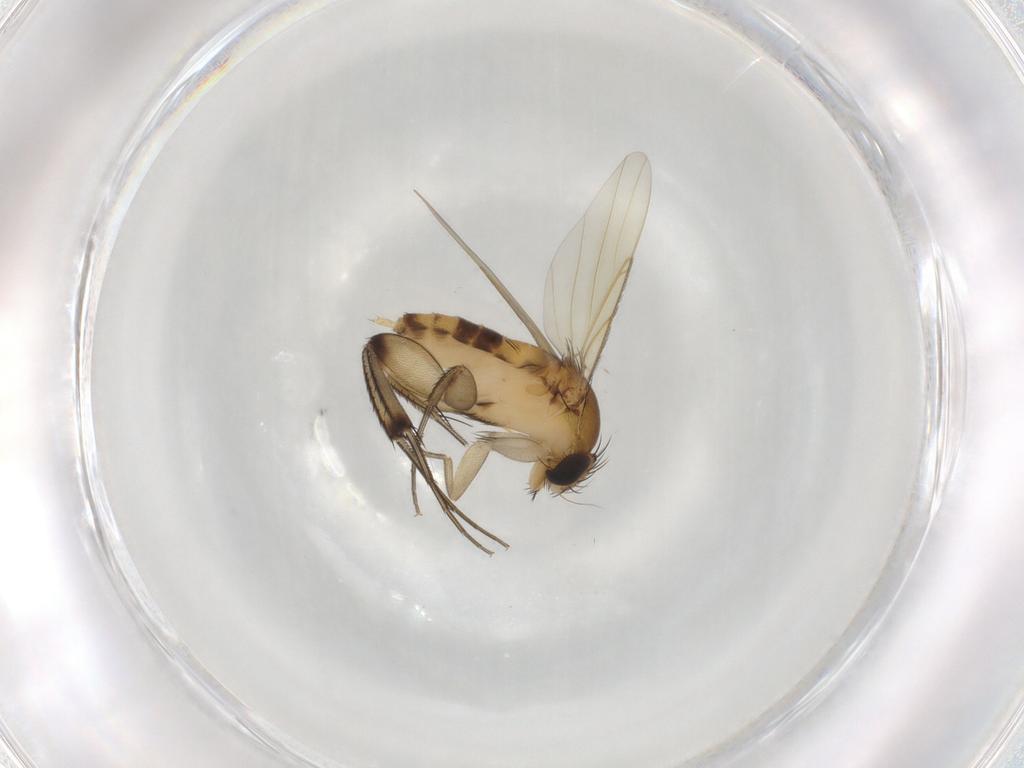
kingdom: Animalia
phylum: Arthropoda
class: Insecta
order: Diptera
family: Phoridae
